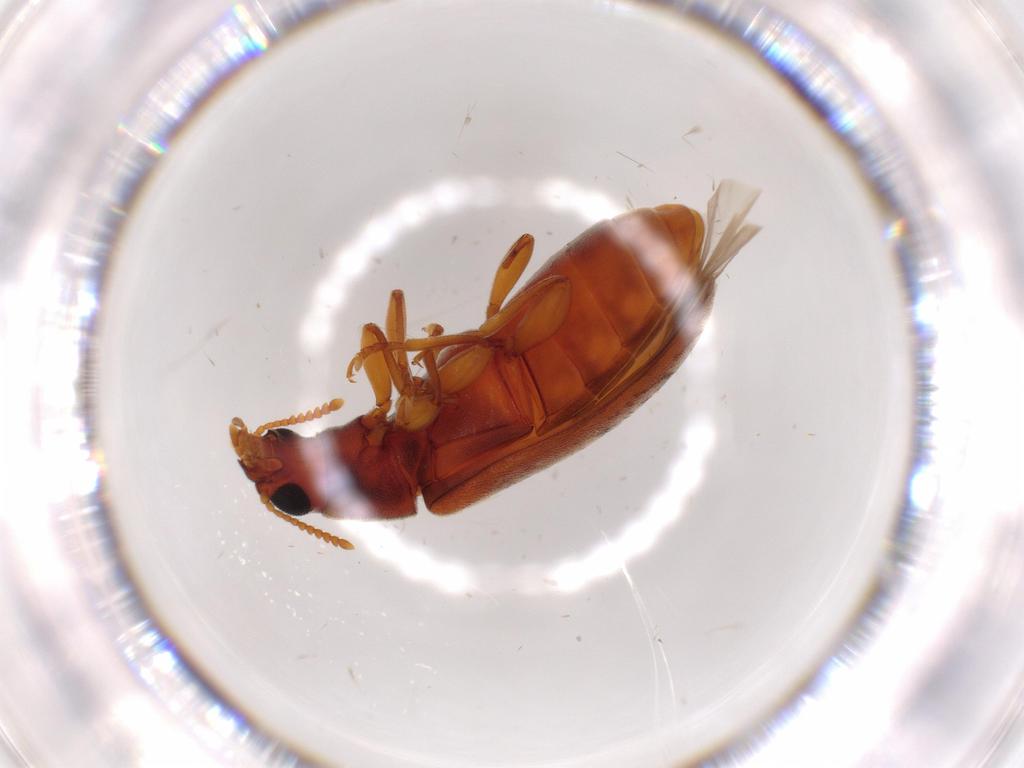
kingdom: Animalia
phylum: Arthropoda
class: Insecta
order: Coleoptera
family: Mycteridae
